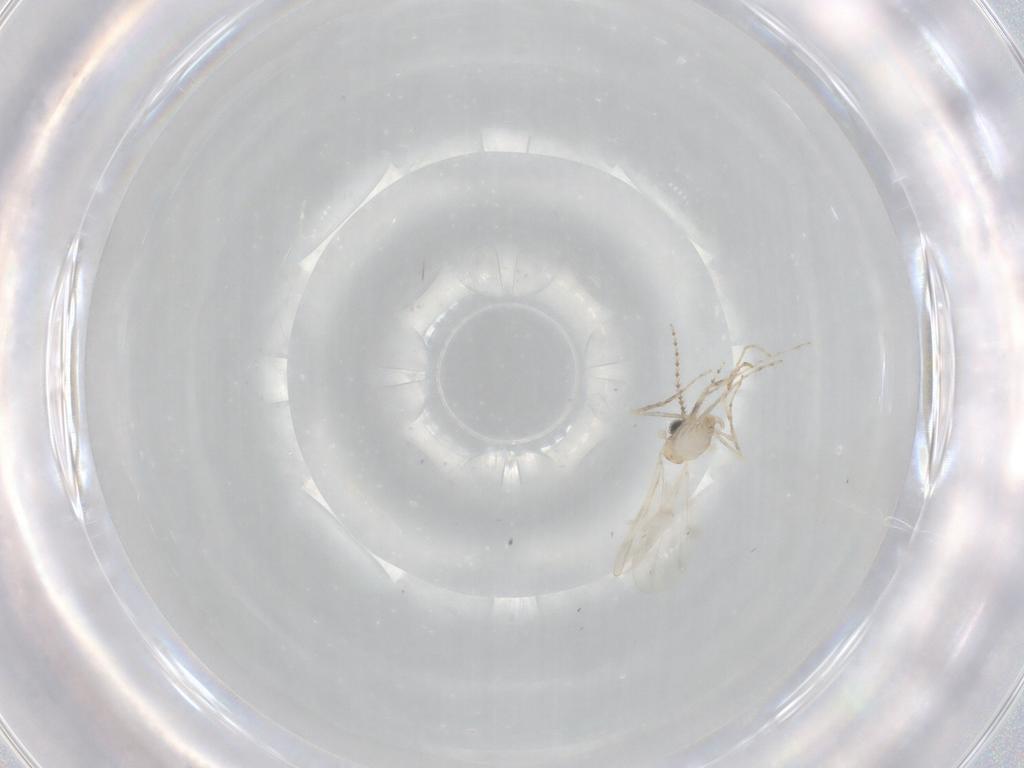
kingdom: Animalia
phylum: Arthropoda
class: Insecta
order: Diptera
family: Cecidomyiidae
